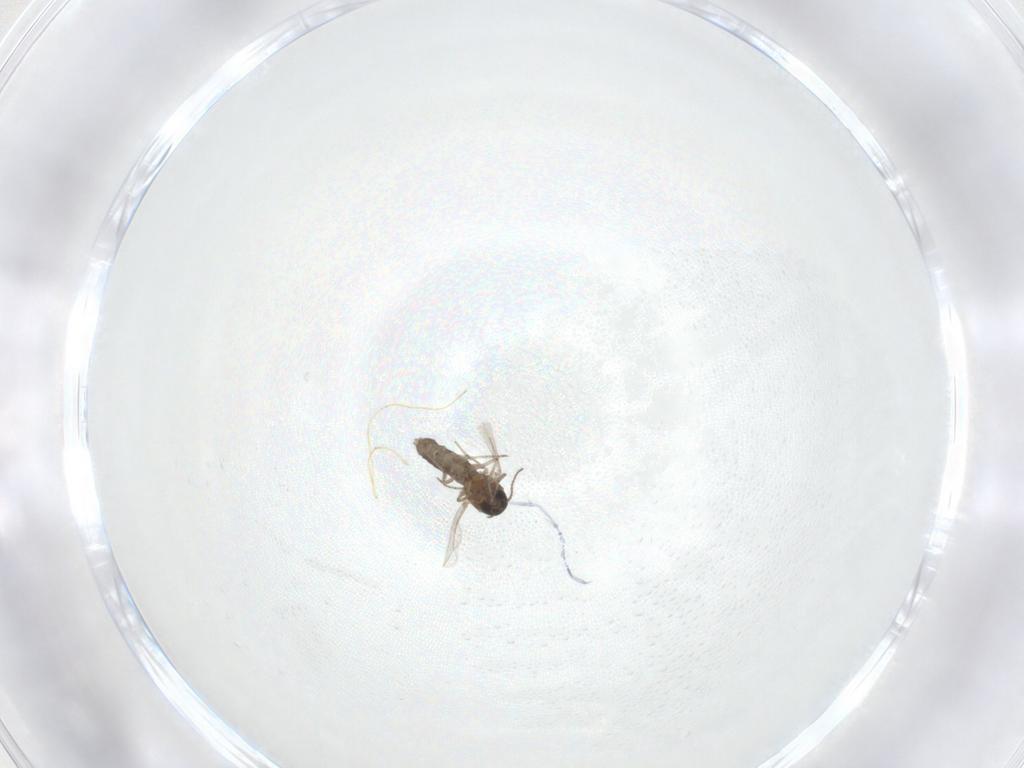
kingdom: Animalia
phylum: Arthropoda
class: Insecta
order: Diptera
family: Ceratopogonidae
